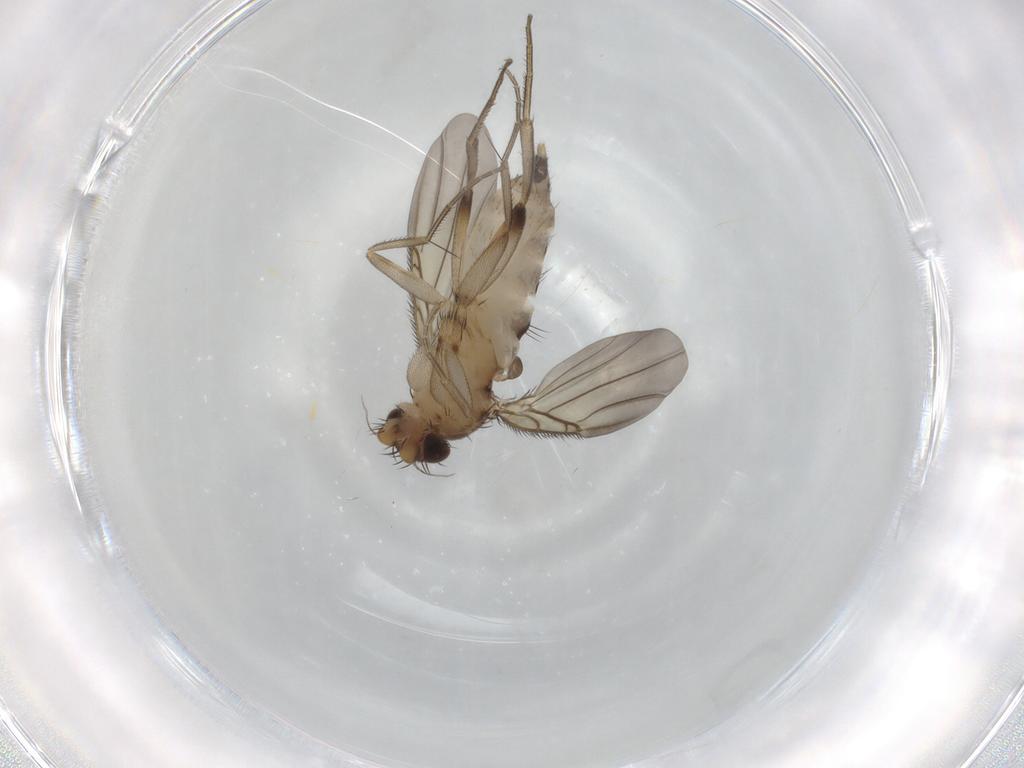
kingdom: Animalia
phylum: Arthropoda
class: Insecta
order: Diptera
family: Phoridae
